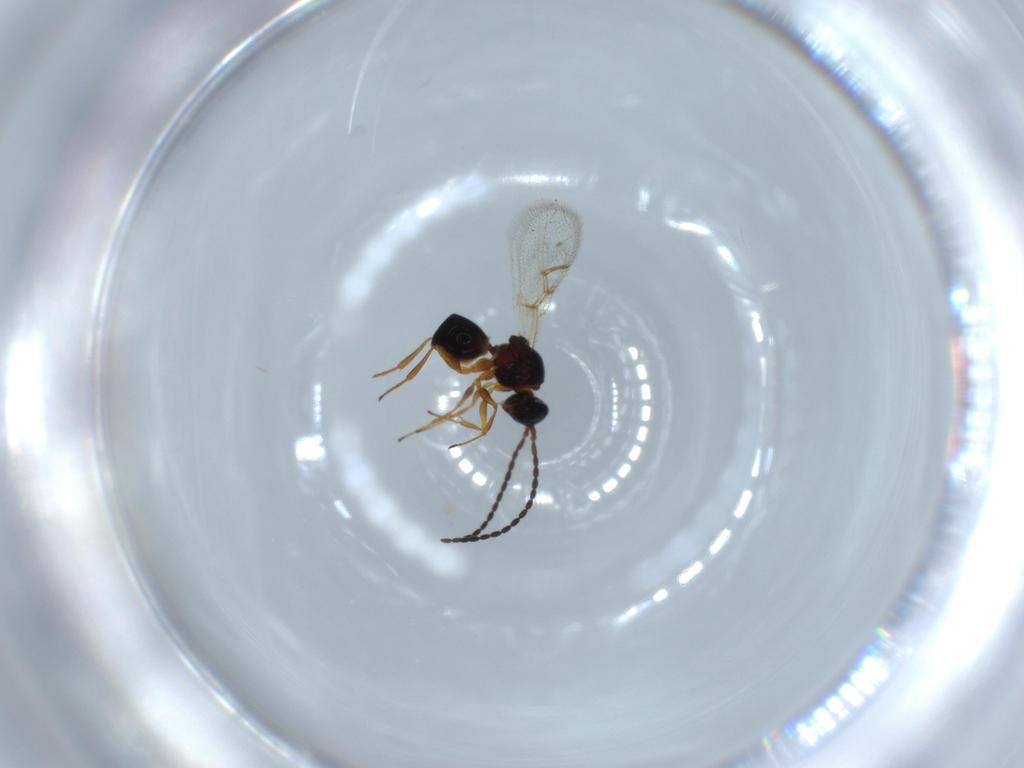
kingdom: Animalia
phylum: Arthropoda
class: Insecta
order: Hymenoptera
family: Figitidae
